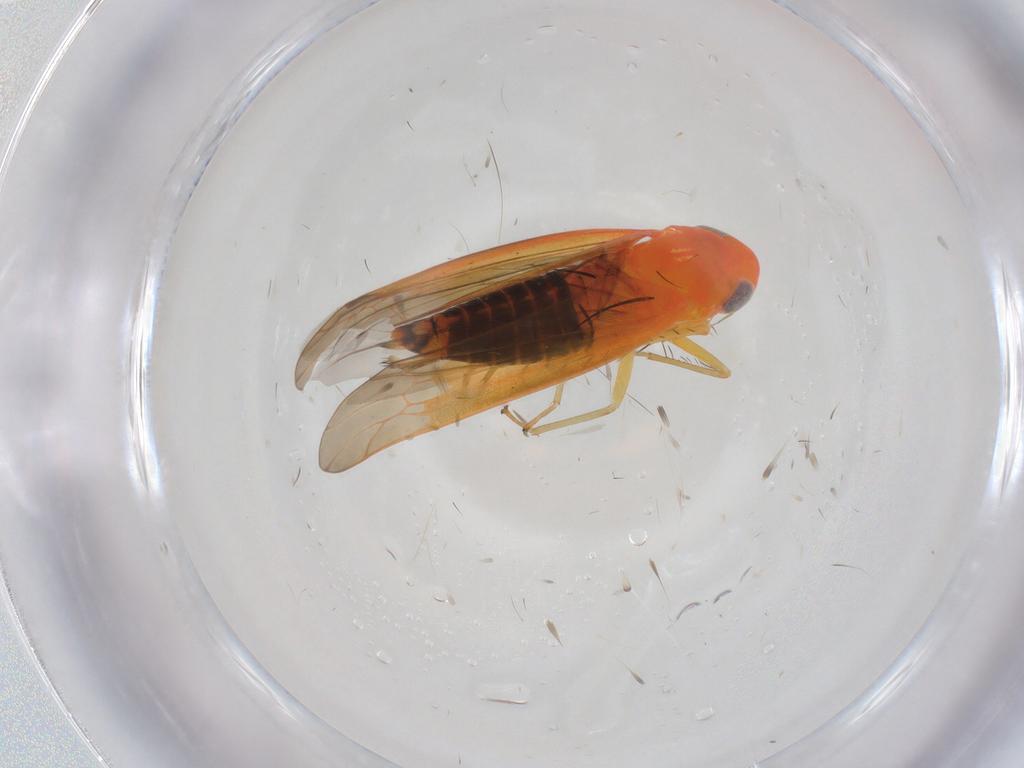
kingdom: Animalia
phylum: Arthropoda
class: Insecta
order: Hemiptera
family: Cicadellidae
